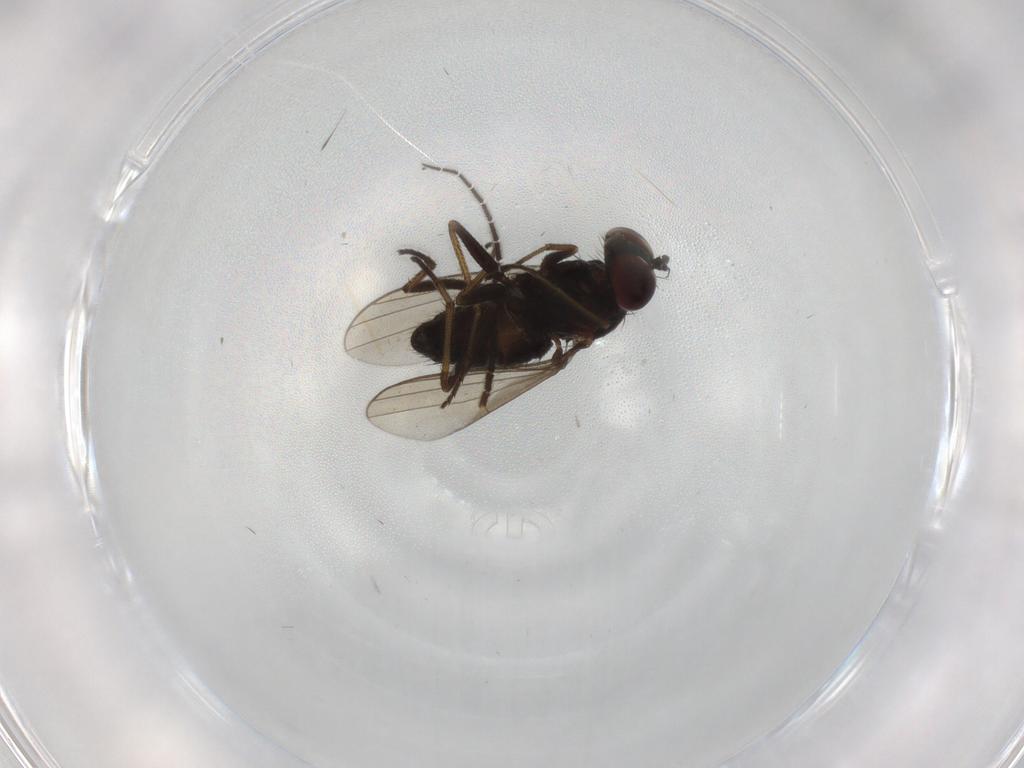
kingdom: Animalia
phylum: Arthropoda
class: Insecta
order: Diptera
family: Dolichopodidae
